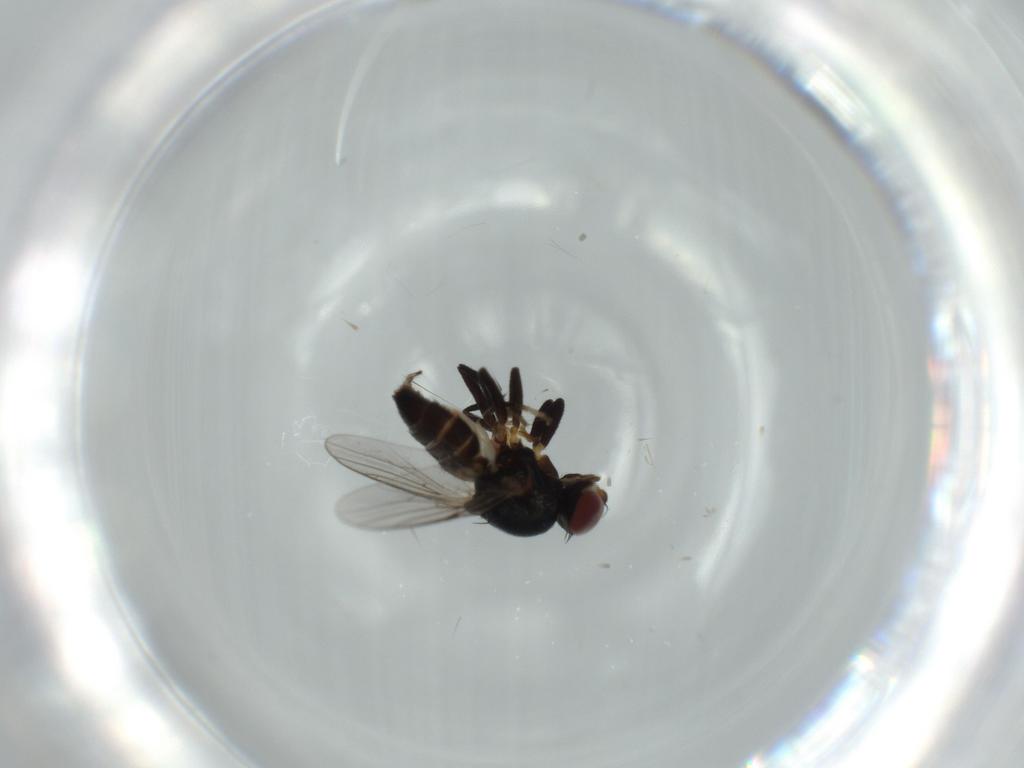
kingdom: Animalia
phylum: Arthropoda
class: Insecta
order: Diptera
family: Chloropidae
